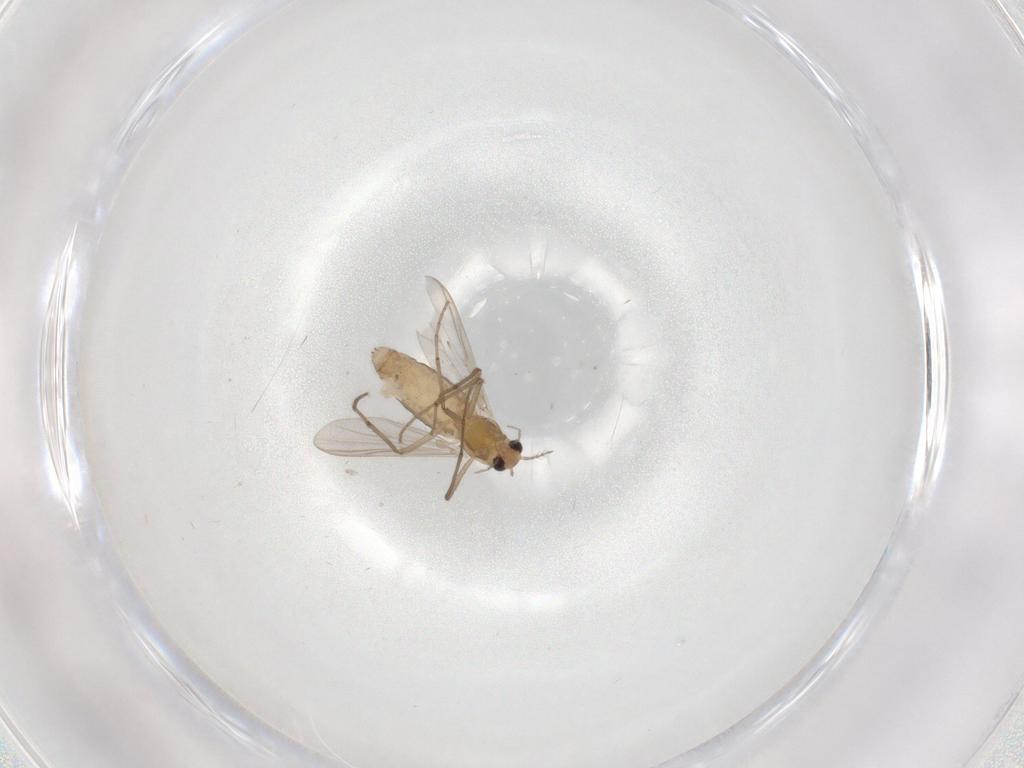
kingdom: Animalia
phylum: Arthropoda
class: Insecta
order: Diptera
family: Chironomidae
